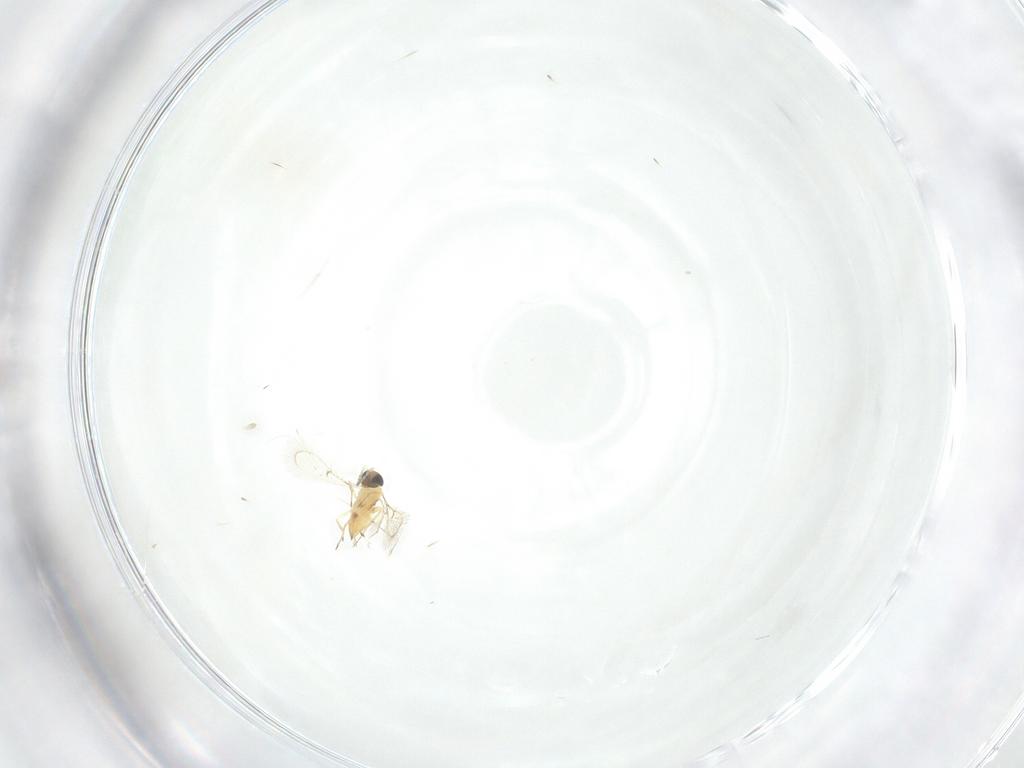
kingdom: Animalia
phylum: Arthropoda
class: Insecta
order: Hymenoptera
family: Trichogrammatidae
